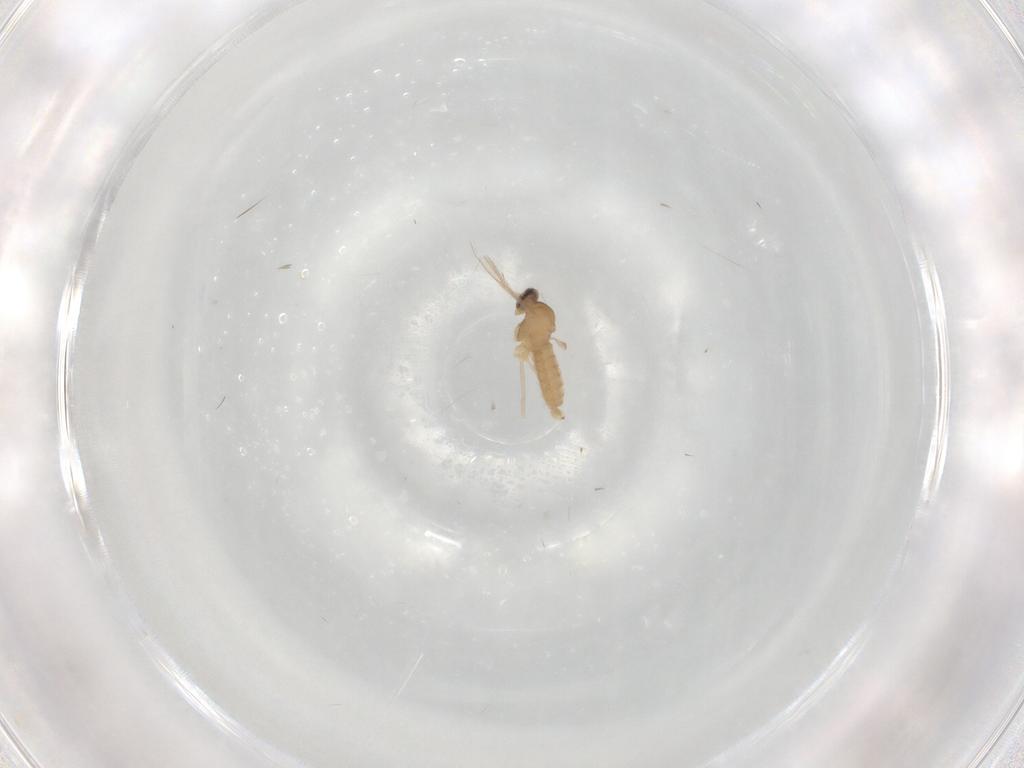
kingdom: Animalia
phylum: Arthropoda
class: Insecta
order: Diptera
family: Cecidomyiidae
